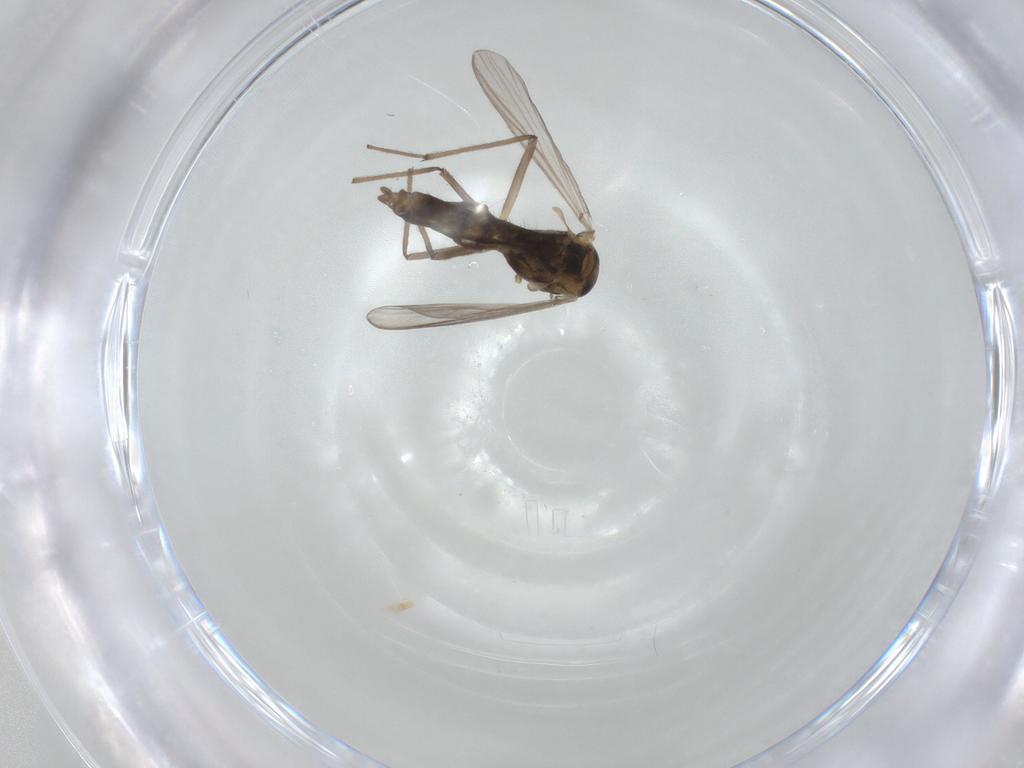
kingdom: Animalia
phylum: Arthropoda
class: Insecta
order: Diptera
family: Chironomidae
